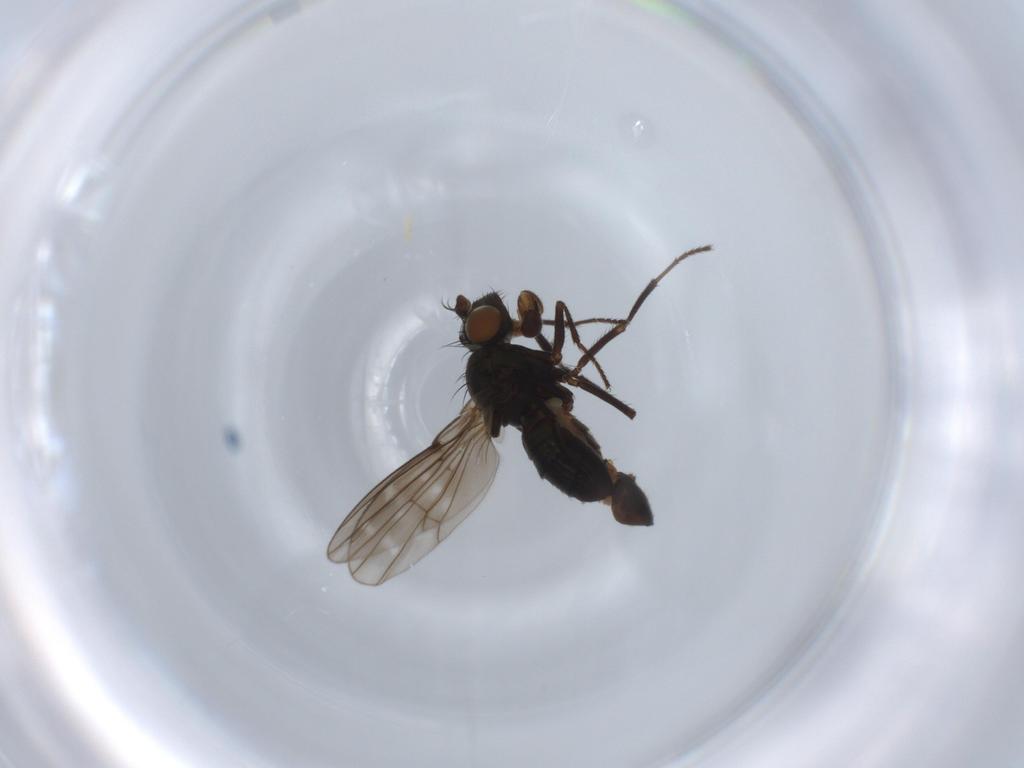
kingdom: Animalia
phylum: Arthropoda
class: Insecta
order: Diptera
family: Ephydridae
